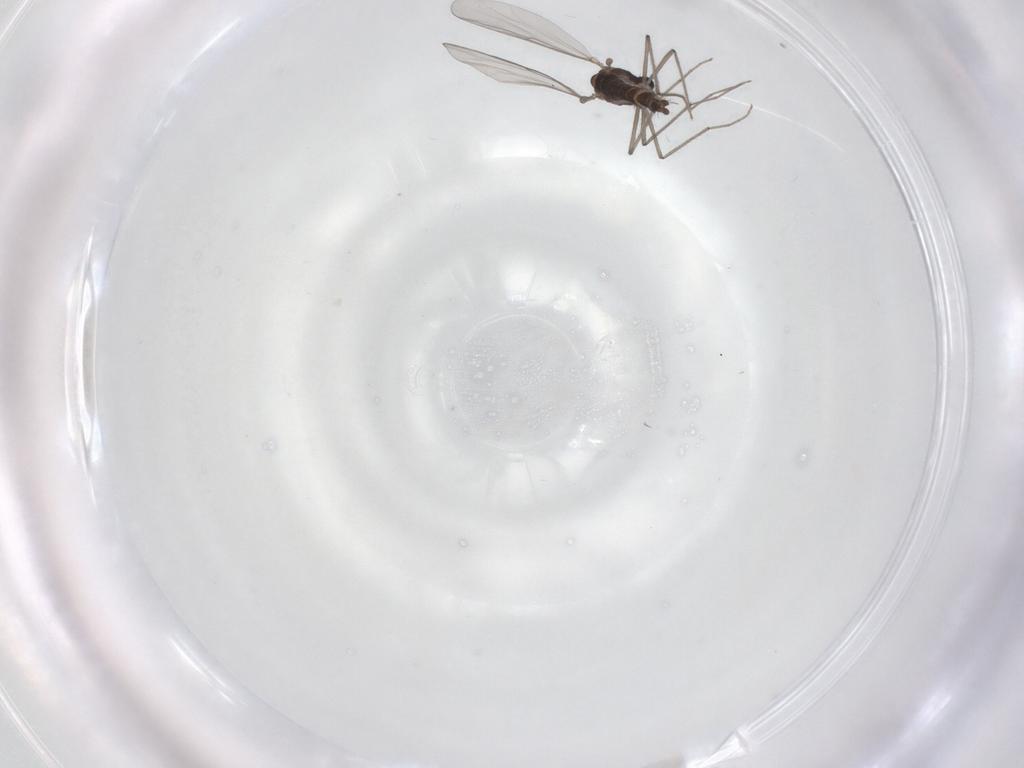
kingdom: Animalia
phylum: Arthropoda
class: Insecta
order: Diptera
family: Chironomidae
